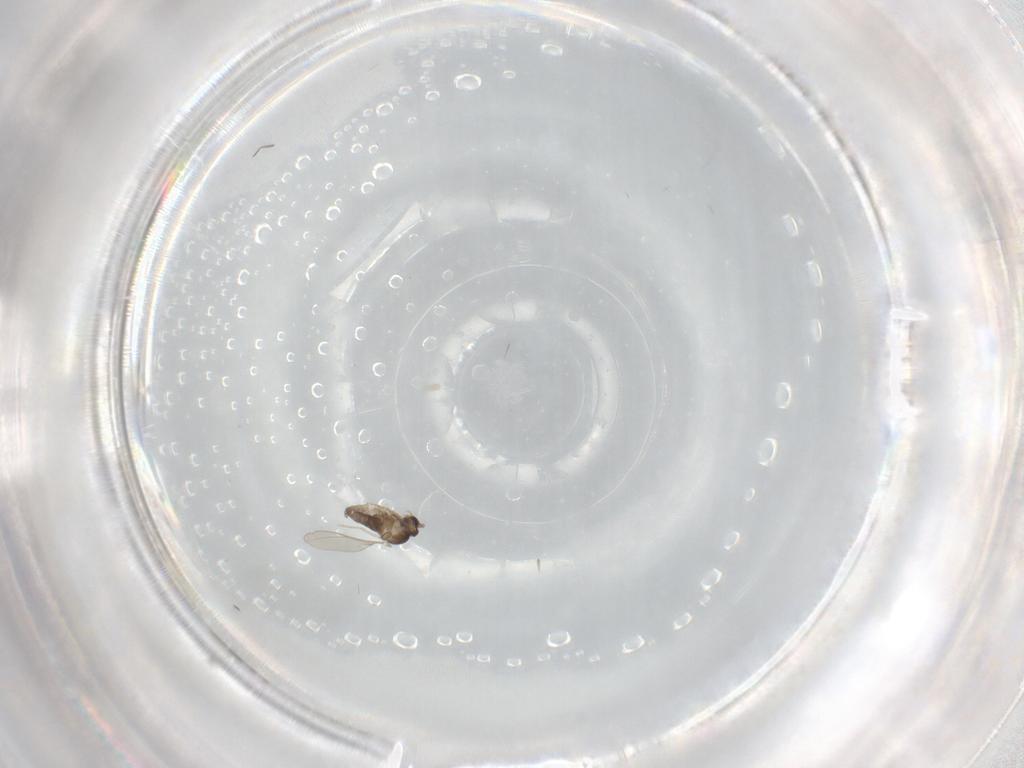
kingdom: Animalia
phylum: Arthropoda
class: Insecta
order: Diptera
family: Cecidomyiidae
